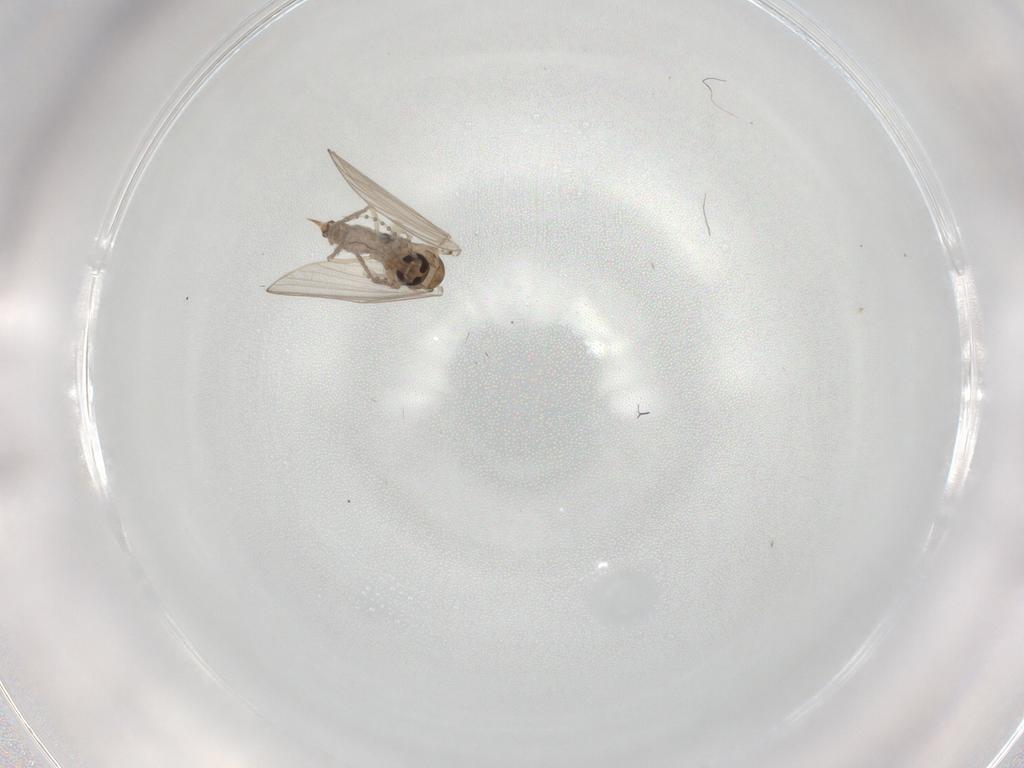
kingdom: Animalia
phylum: Arthropoda
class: Insecta
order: Diptera
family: Psychodidae
